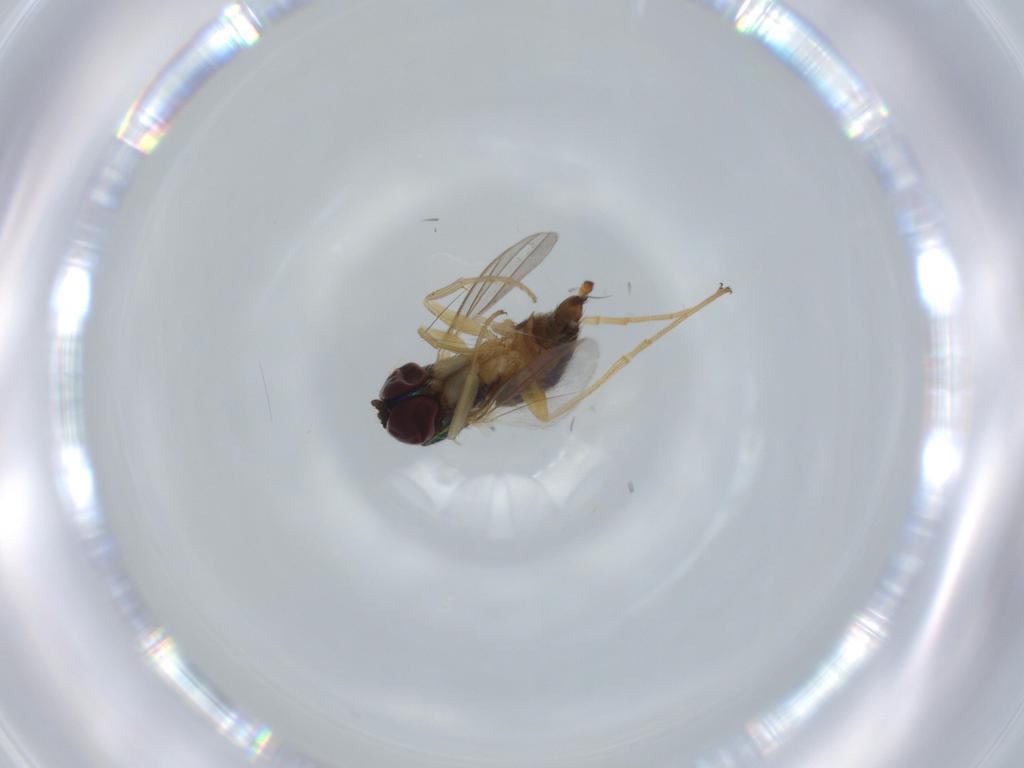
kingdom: Animalia
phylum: Arthropoda
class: Insecta
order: Diptera
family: Dolichopodidae
